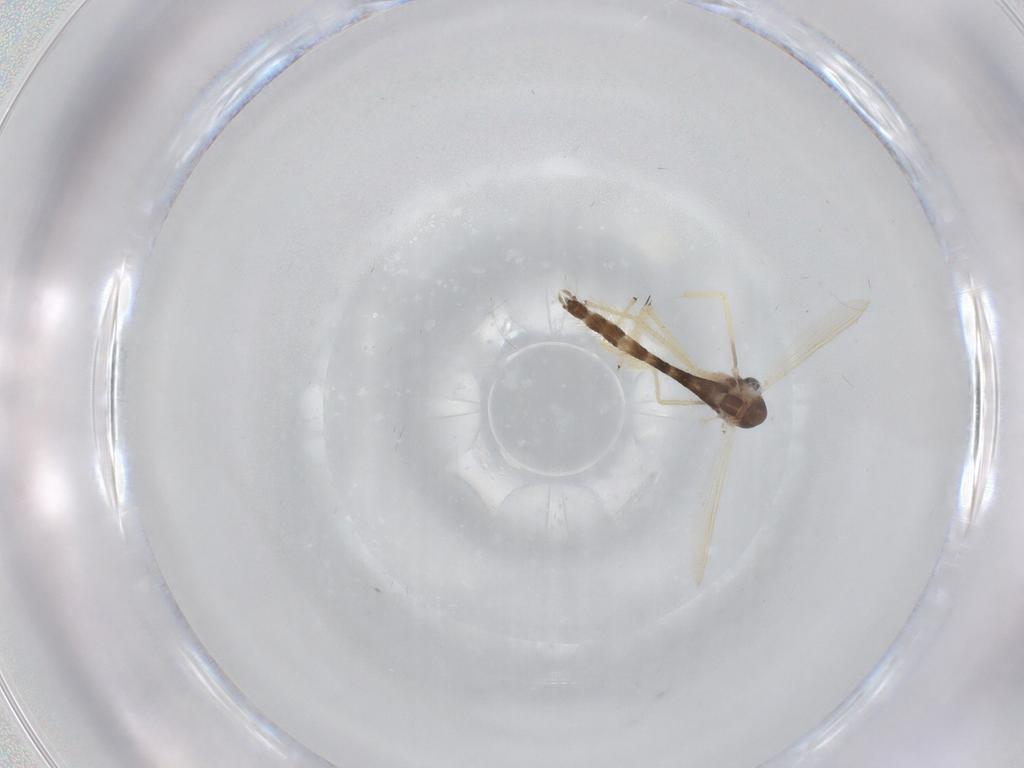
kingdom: Animalia
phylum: Arthropoda
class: Insecta
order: Diptera
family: Chironomidae
